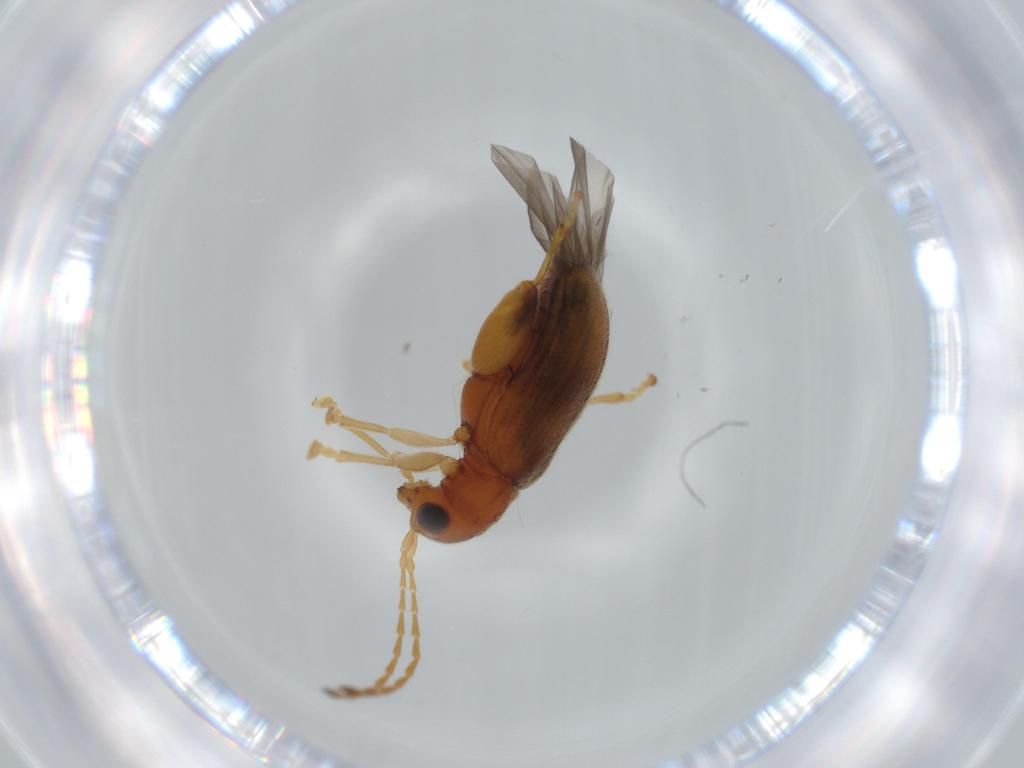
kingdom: Animalia
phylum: Arthropoda
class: Insecta
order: Coleoptera
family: Chrysomelidae
